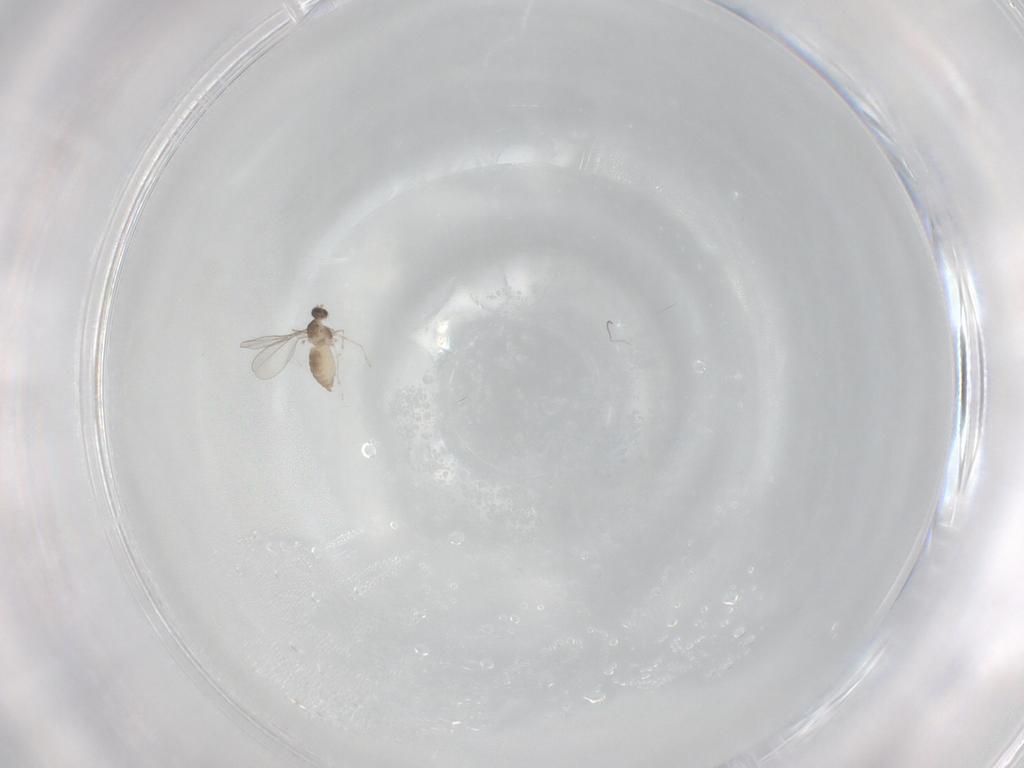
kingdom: Animalia
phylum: Arthropoda
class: Insecta
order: Diptera
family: Cecidomyiidae
